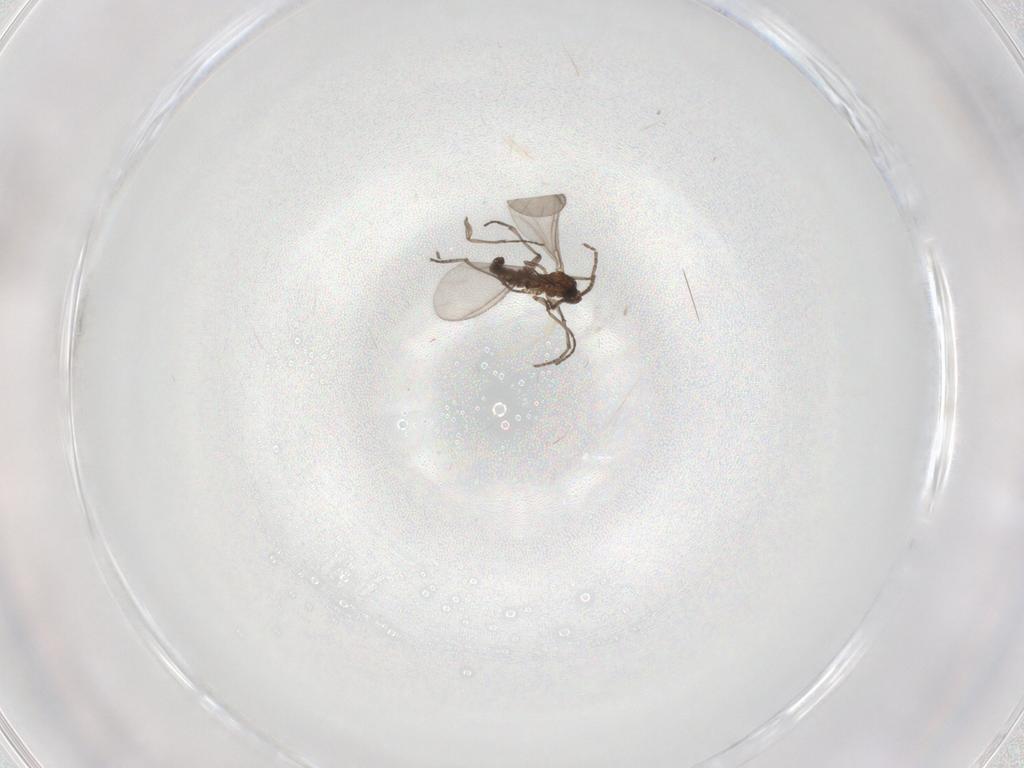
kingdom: Animalia
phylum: Arthropoda
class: Insecta
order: Diptera
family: Sciaridae
